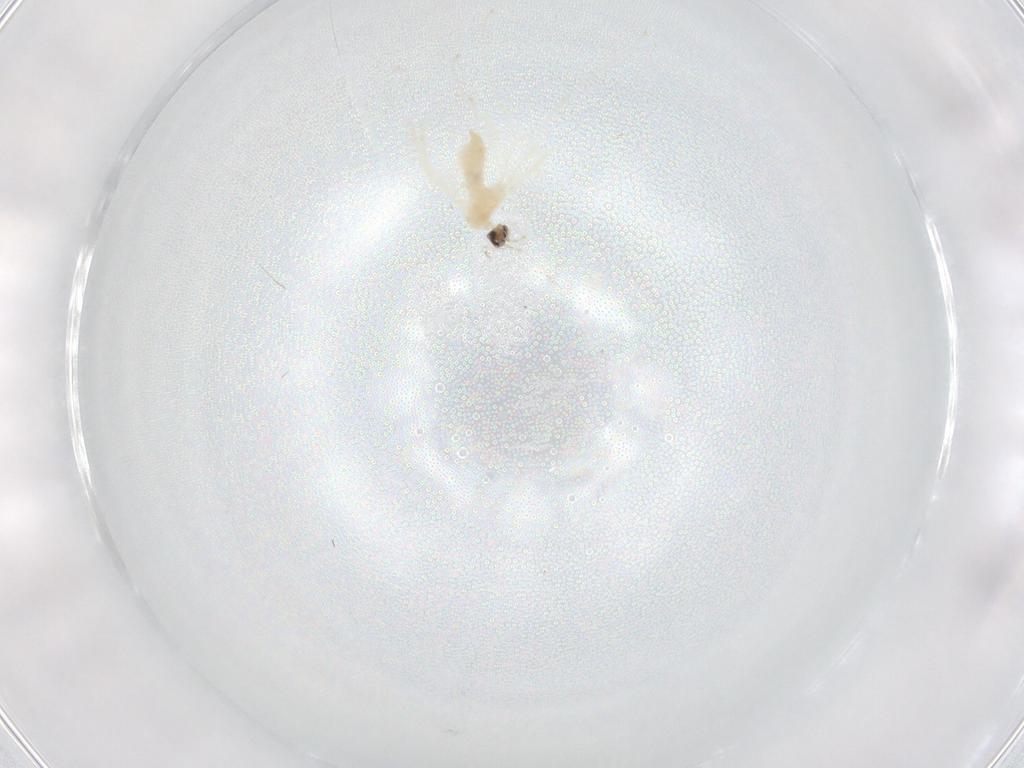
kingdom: Animalia
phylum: Arthropoda
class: Insecta
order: Diptera
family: Cecidomyiidae
